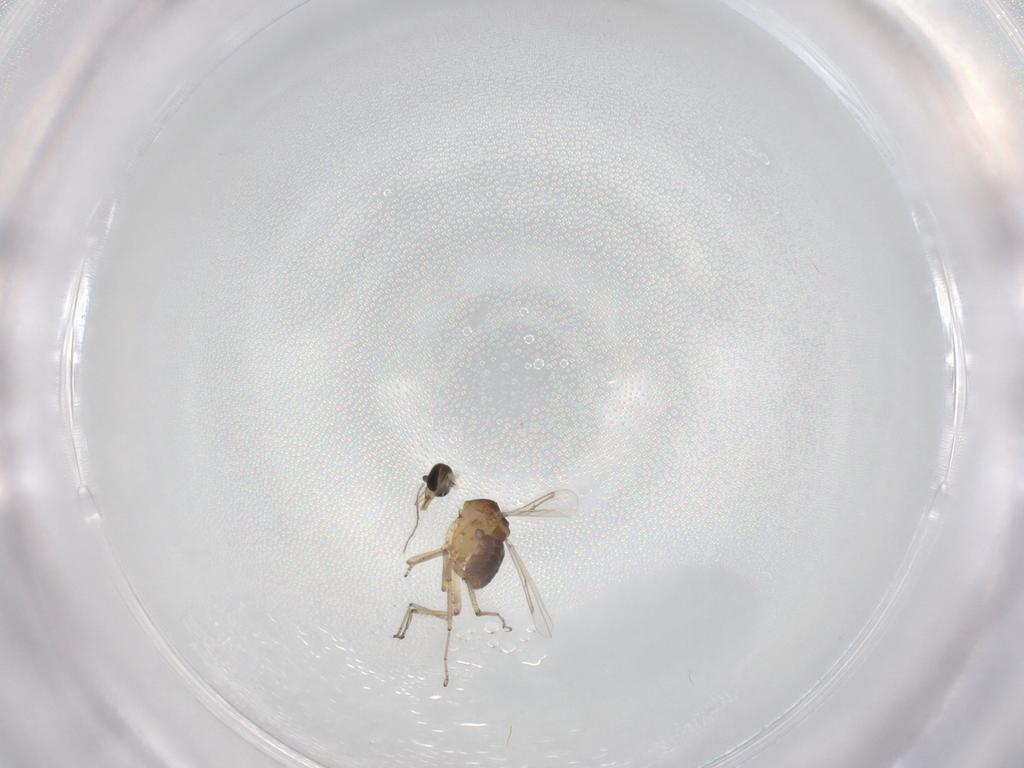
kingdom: Animalia
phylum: Arthropoda
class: Insecta
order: Diptera
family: Ceratopogonidae
